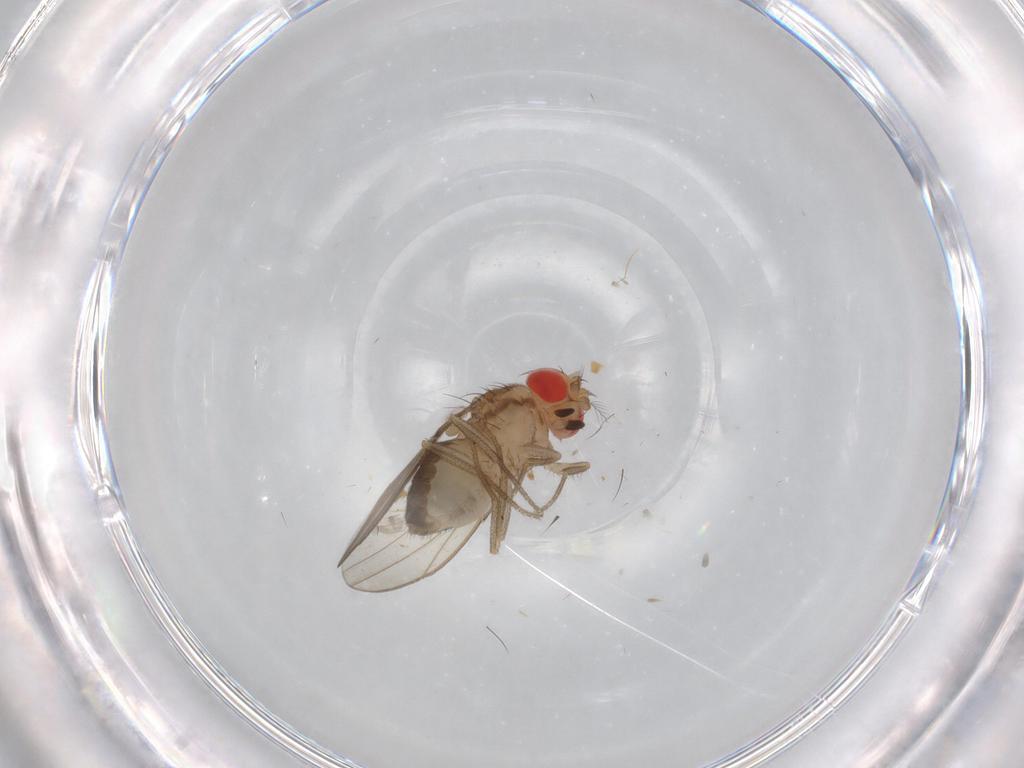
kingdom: Animalia
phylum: Arthropoda
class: Insecta
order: Diptera
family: Drosophilidae
